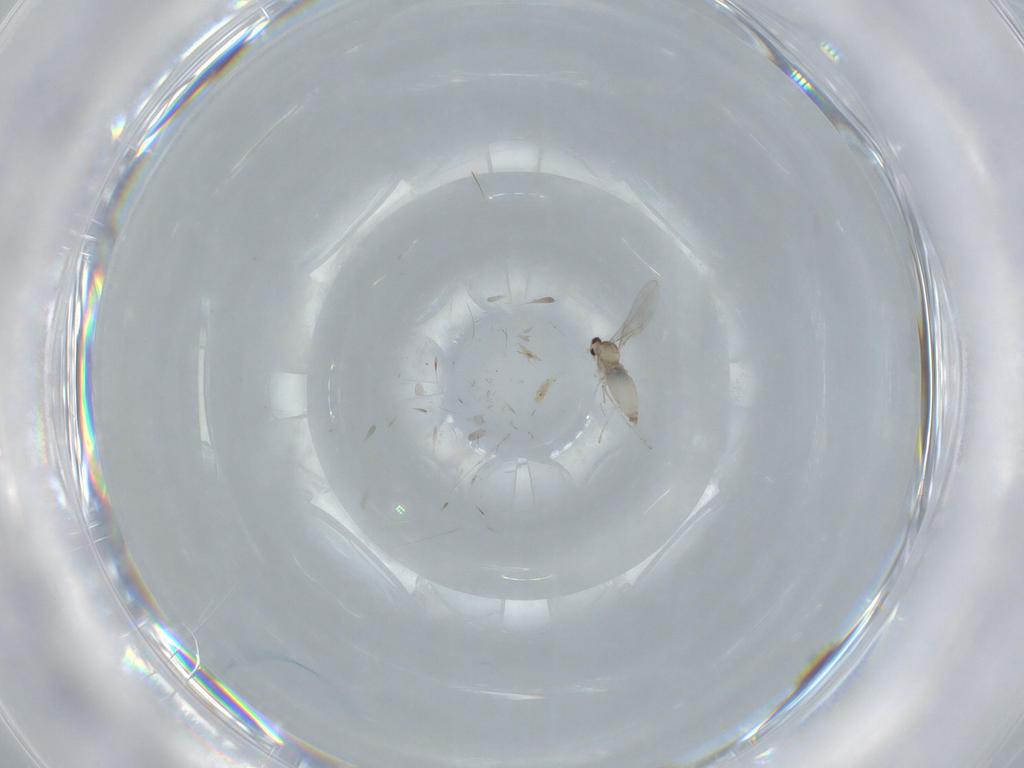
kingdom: Animalia
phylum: Arthropoda
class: Insecta
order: Diptera
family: Cecidomyiidae
